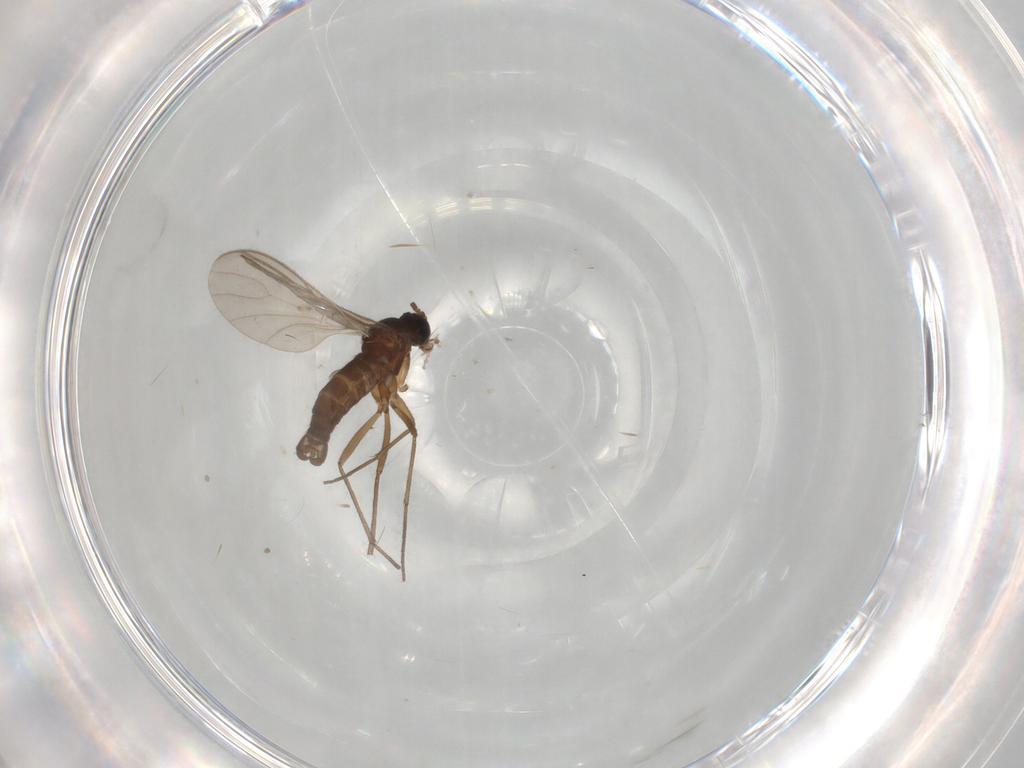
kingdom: Animalia
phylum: Arthropoda
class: Insecta
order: Diptera
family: Sciaridae
